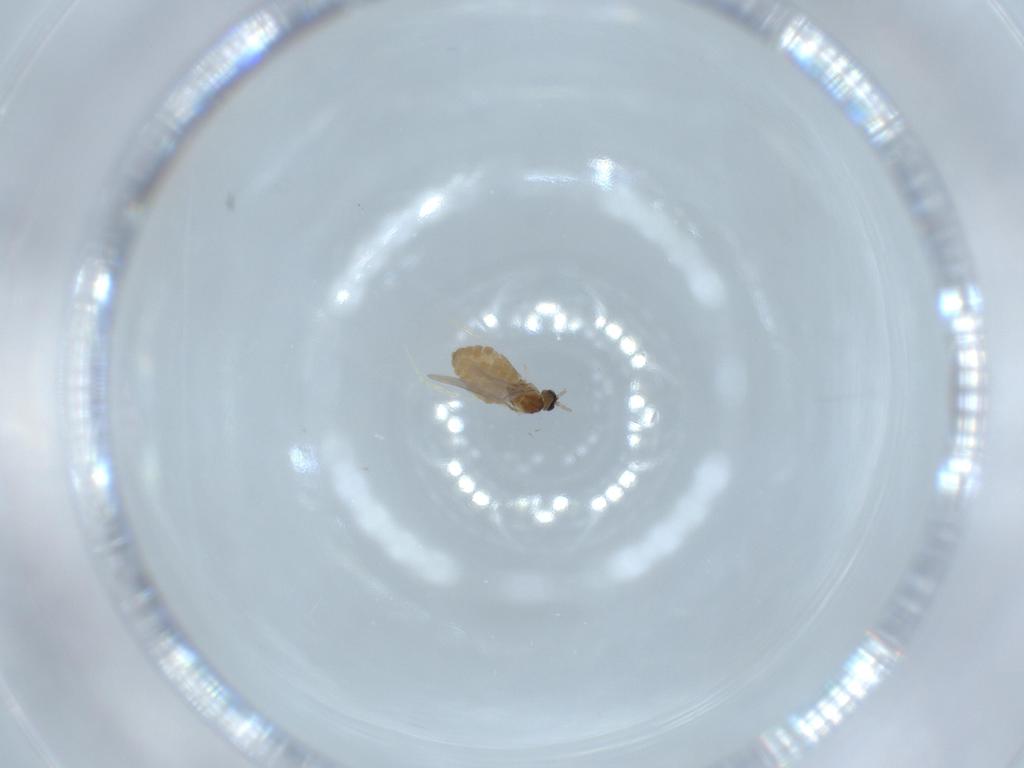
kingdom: Animalia
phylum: Arthropoda
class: Insecta
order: Diptera
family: Cecidomyiidae
